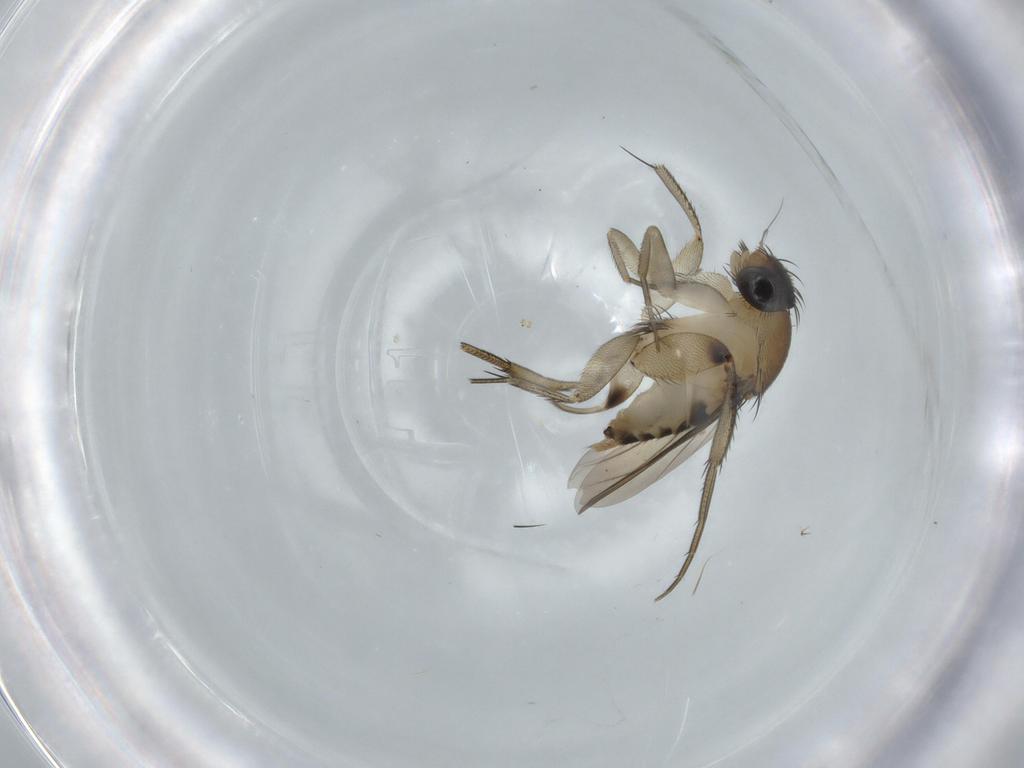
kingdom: Animalia
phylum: Arthropoda
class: Insecta
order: Diptera
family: Phoridae
